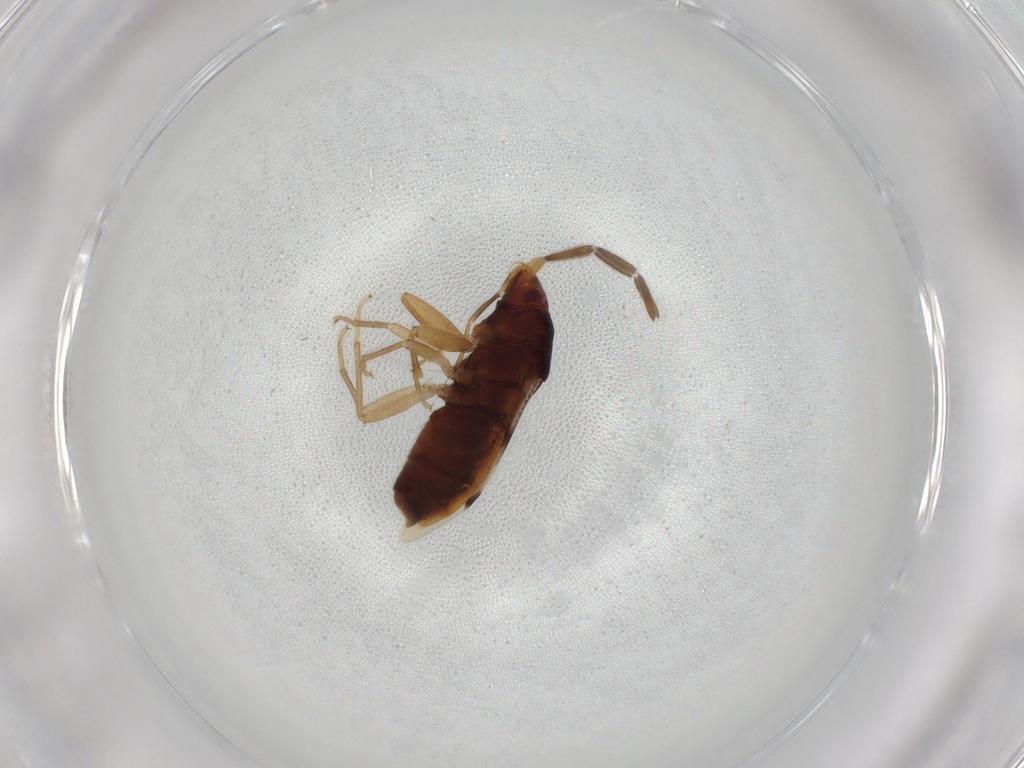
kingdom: Animalia
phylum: Arthropoda
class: Insecta
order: Hemiptera
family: Rhyparochromidae
